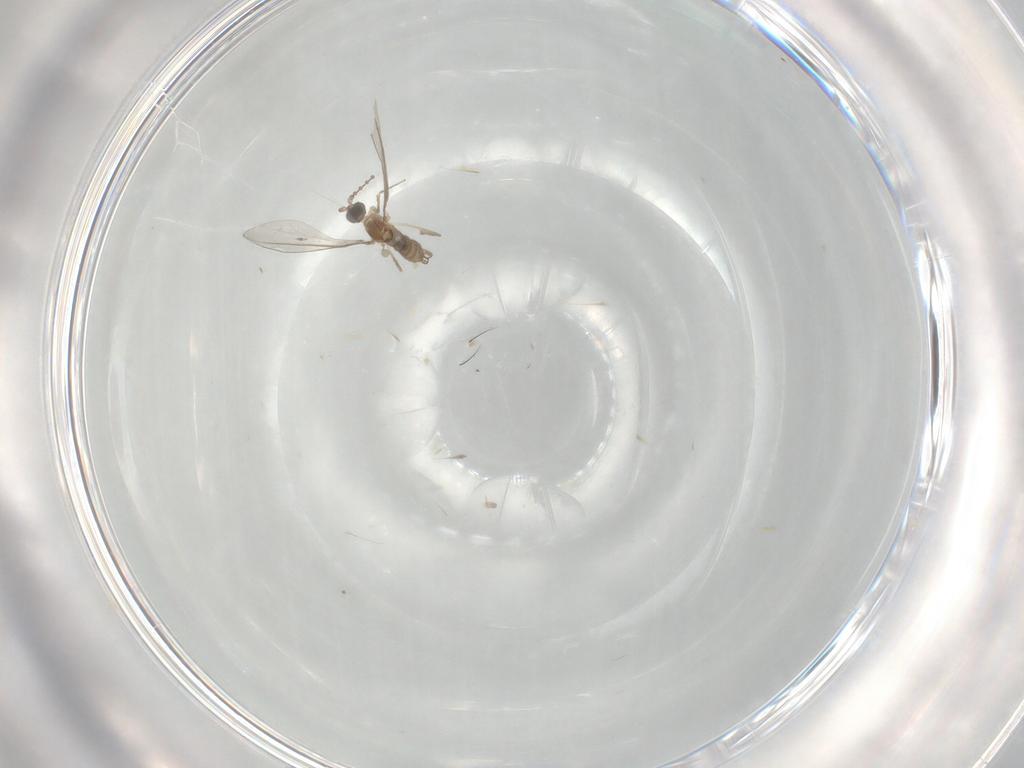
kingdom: Animalia
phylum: Arthropoda
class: Insecta
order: Diptera
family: Cecidomyiidae
